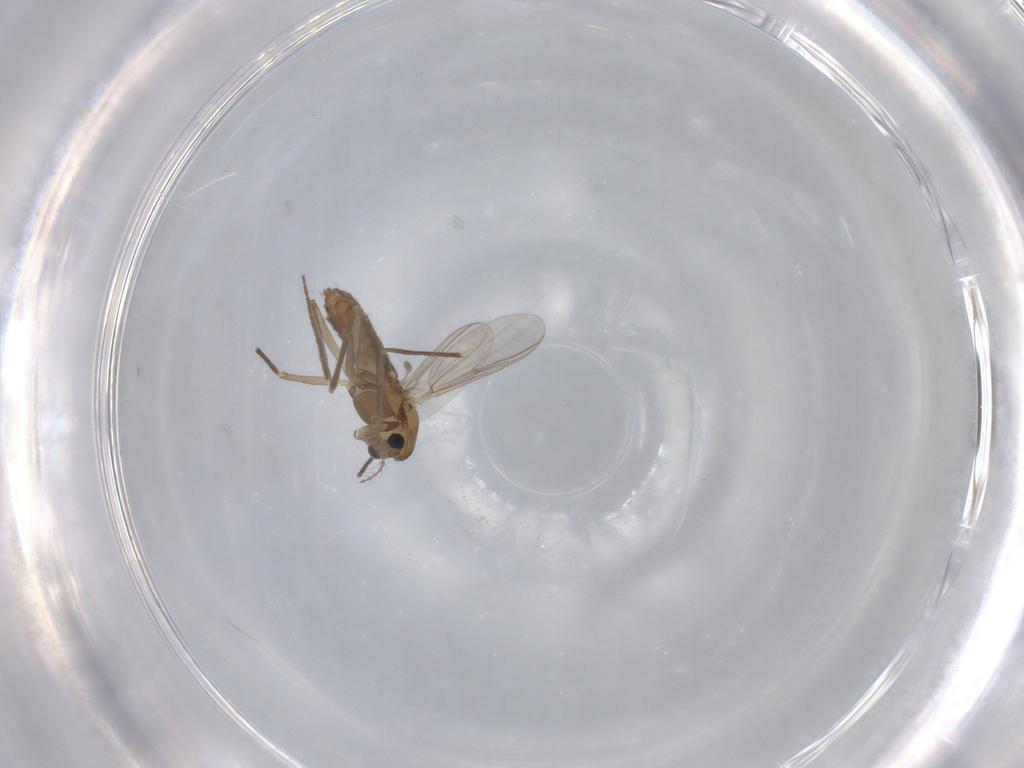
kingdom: Animalia
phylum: Arthropoda
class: Insecta
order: Diptera
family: Chironomidae
